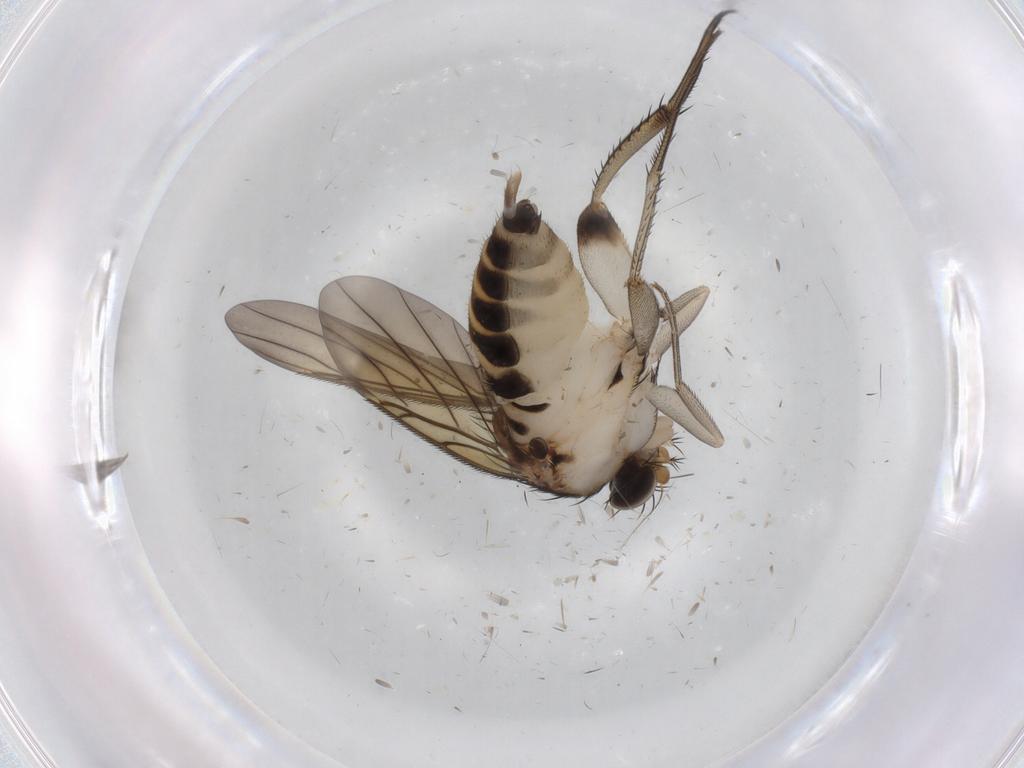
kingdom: Animalia
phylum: Arthropoda
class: Insecta
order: Diptera
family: Phoridae
